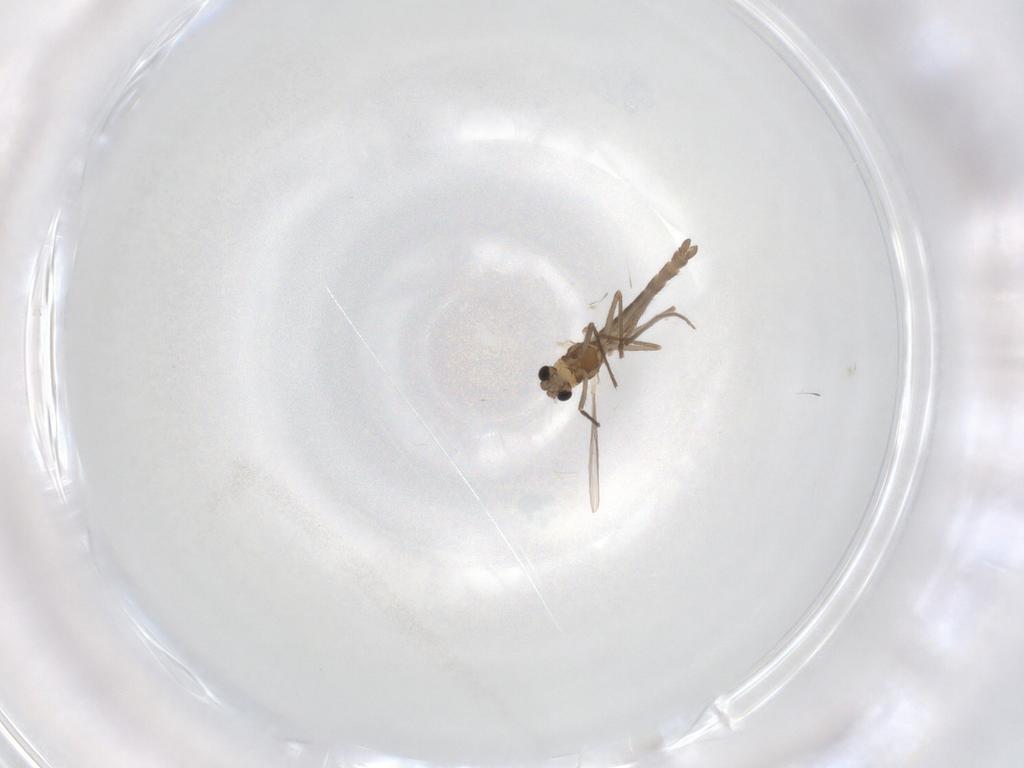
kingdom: Animalia
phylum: Arthropoda
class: Insecta
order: Diptera
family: Chironomidae
